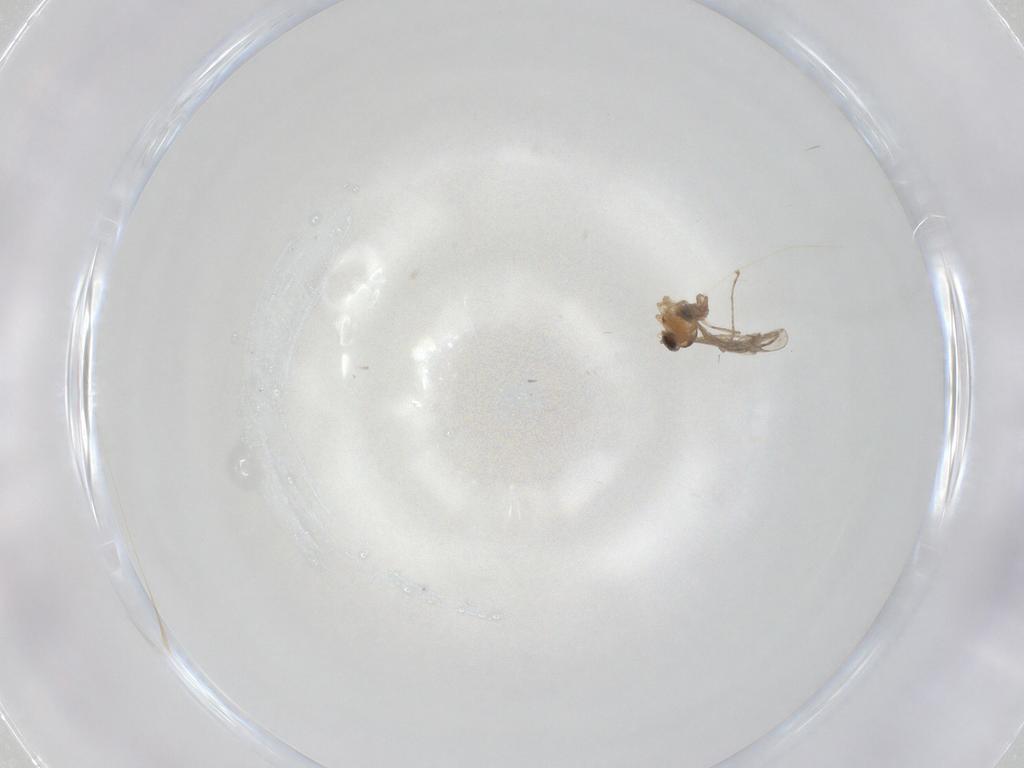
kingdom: Animalia
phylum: Arthropoda
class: Insecta
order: Diptera
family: Cecidomyiidae
